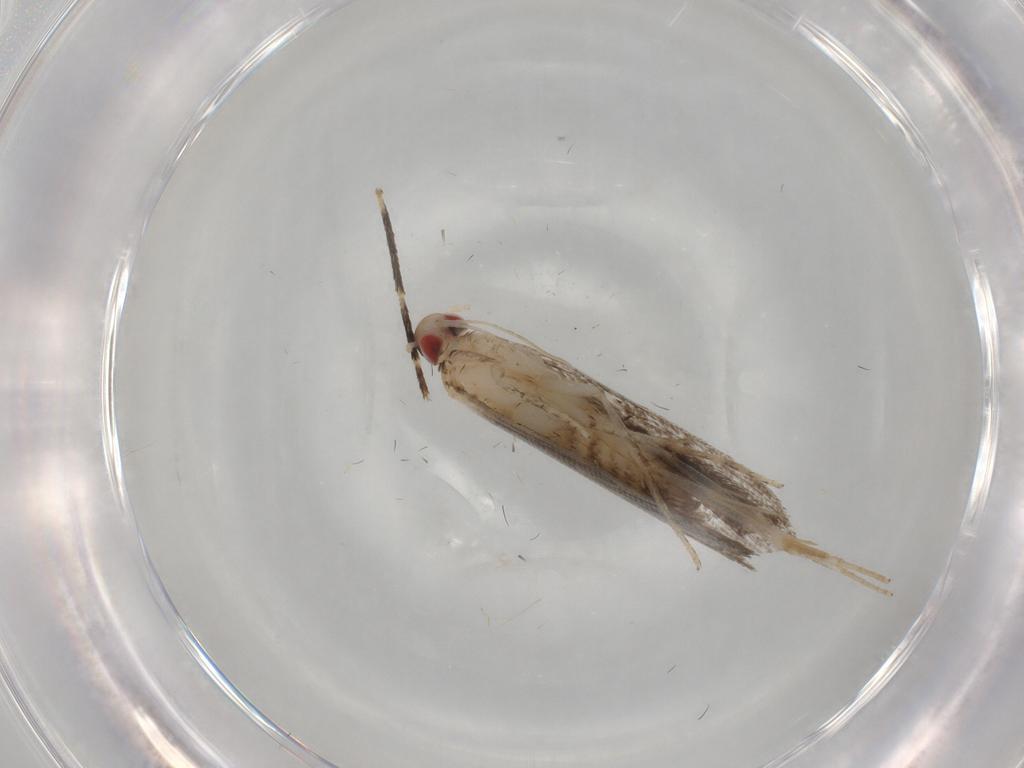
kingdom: Animalia
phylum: Arthropoda
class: Insecta
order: Lepidoptera
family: Gelechiidae
